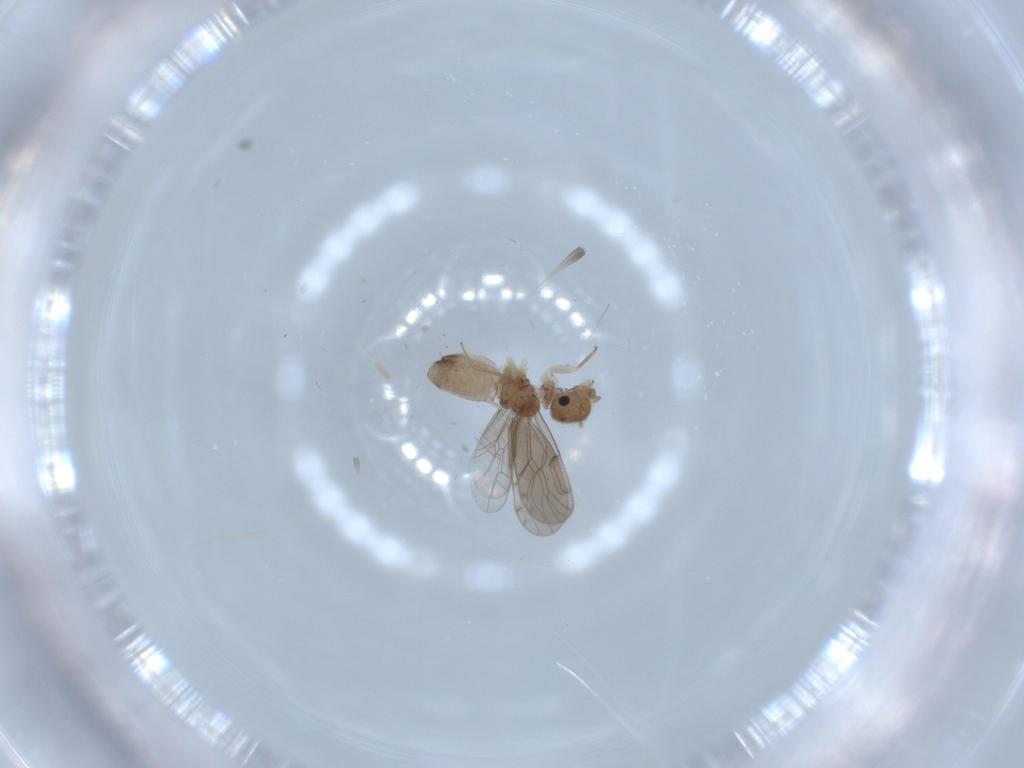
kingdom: Animalia
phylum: Arthropoda
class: Insecta
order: Psocodea
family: Ectopsocidae
